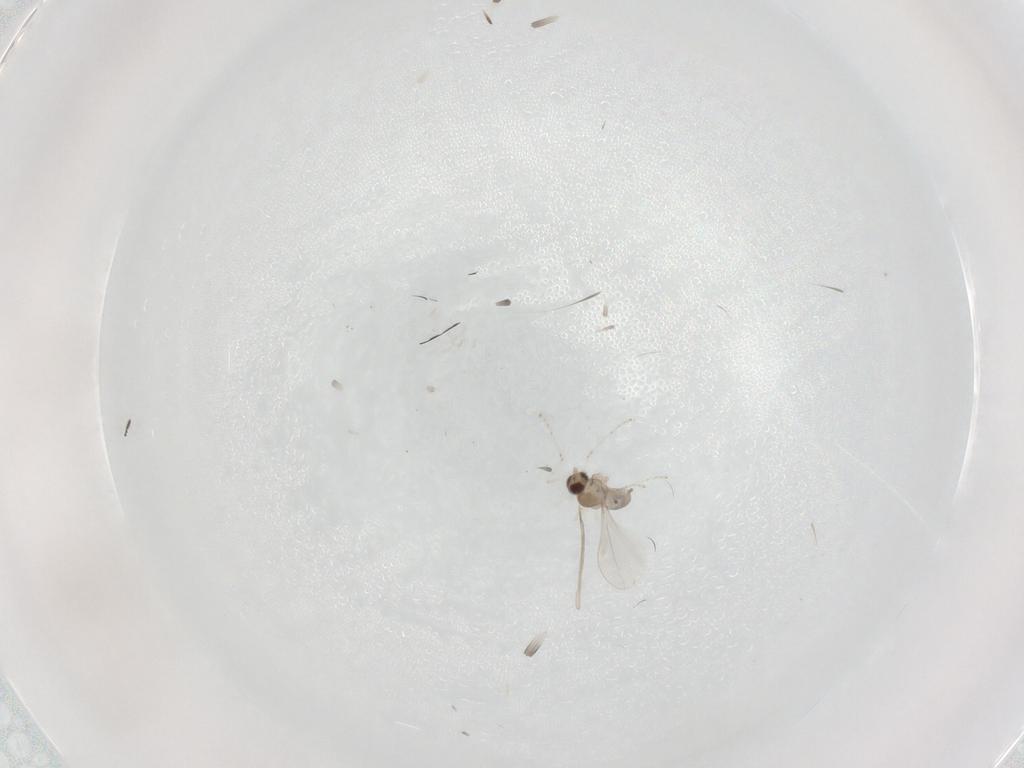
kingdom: Animalia
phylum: Arthropoda
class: Insecta
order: Diptera
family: Cecidomyiidae
